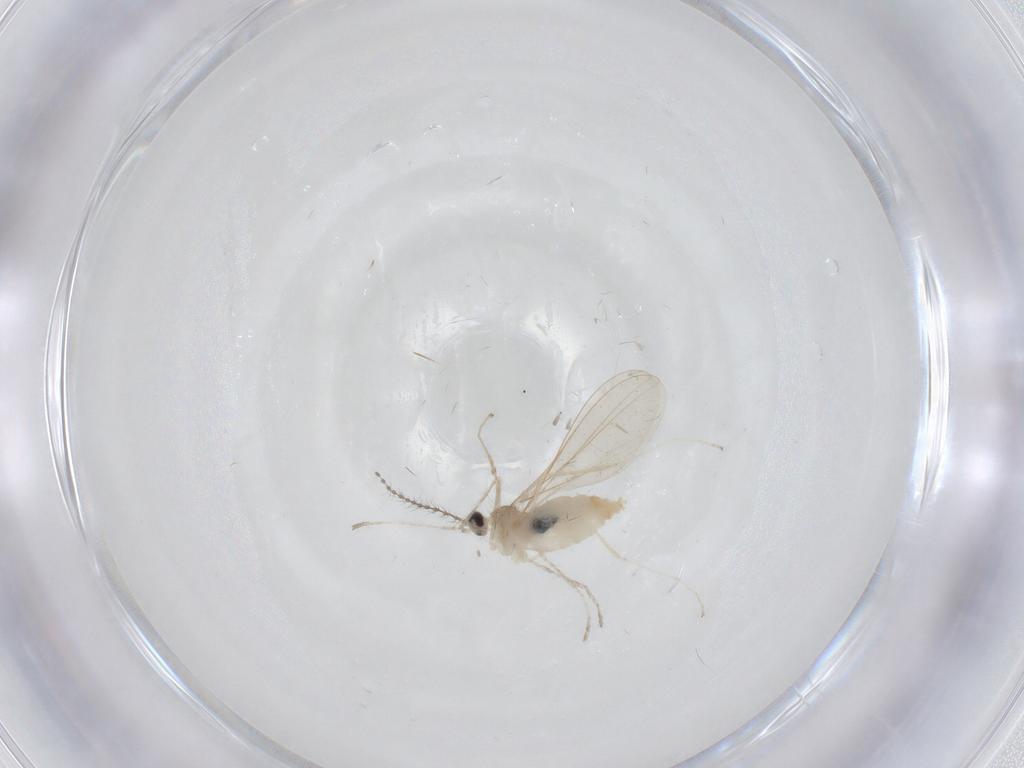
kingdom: Animalia
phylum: Arthropoda
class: Insecta
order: Diptera
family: Cecidomyiidae
